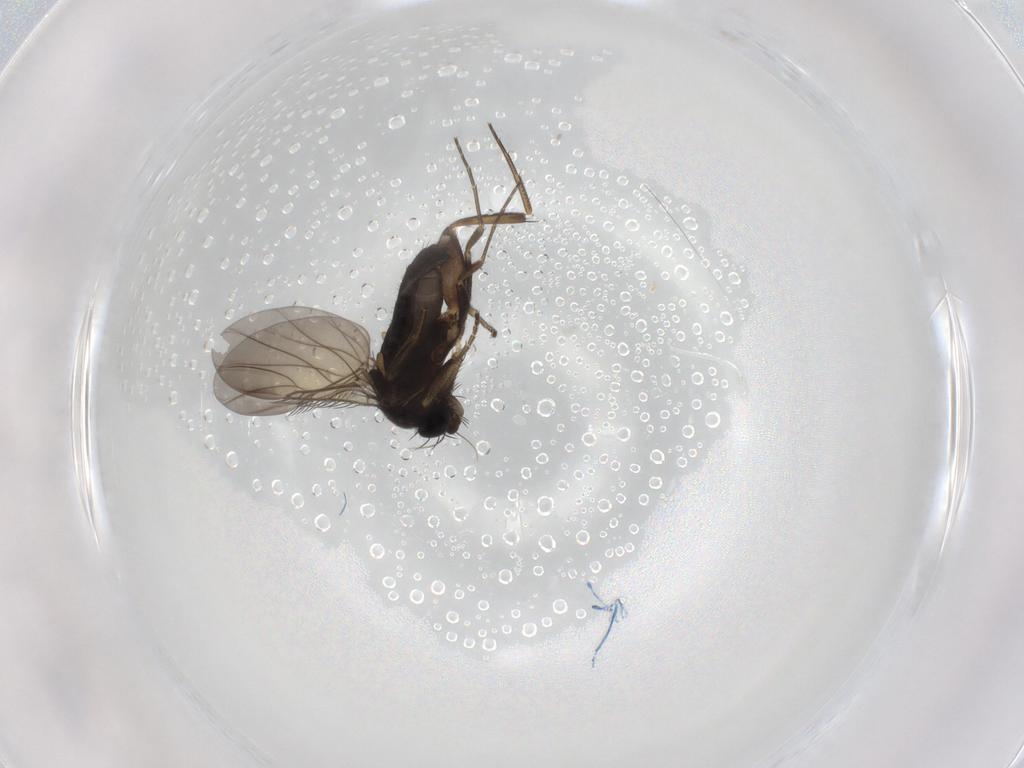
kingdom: Animalia
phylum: Arthropoda
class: Insecta
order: Diptera
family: Phoridae
